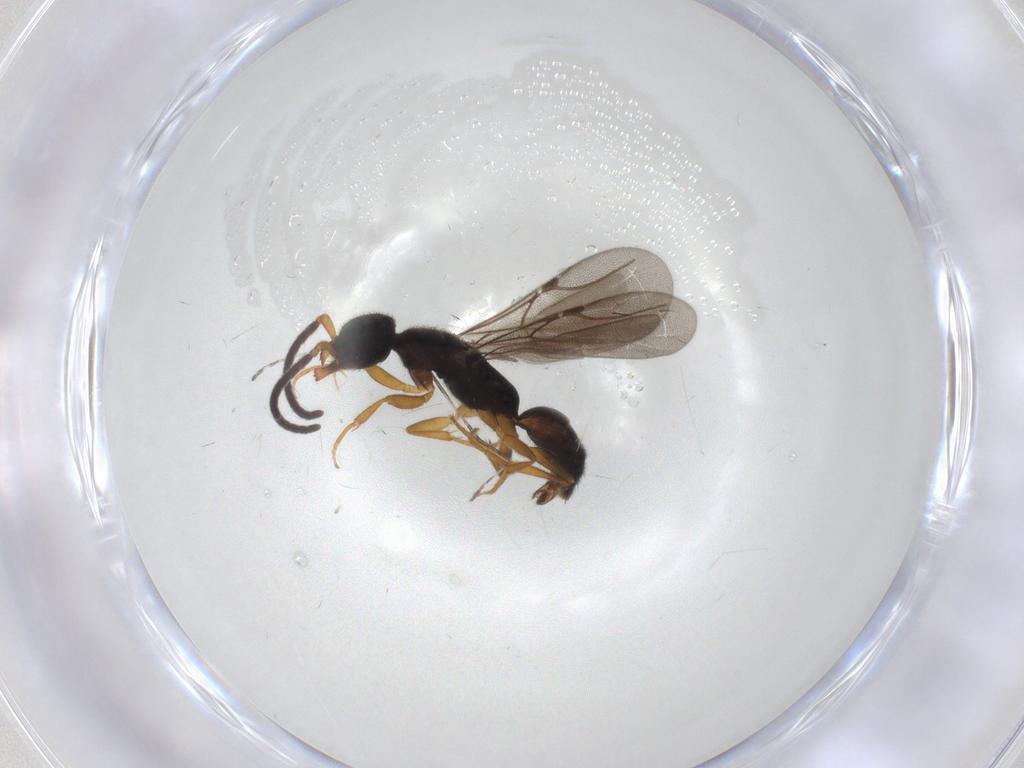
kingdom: Animalia
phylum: Arthropoda
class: Insecta
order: Hymenoptera
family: Bethylidae
